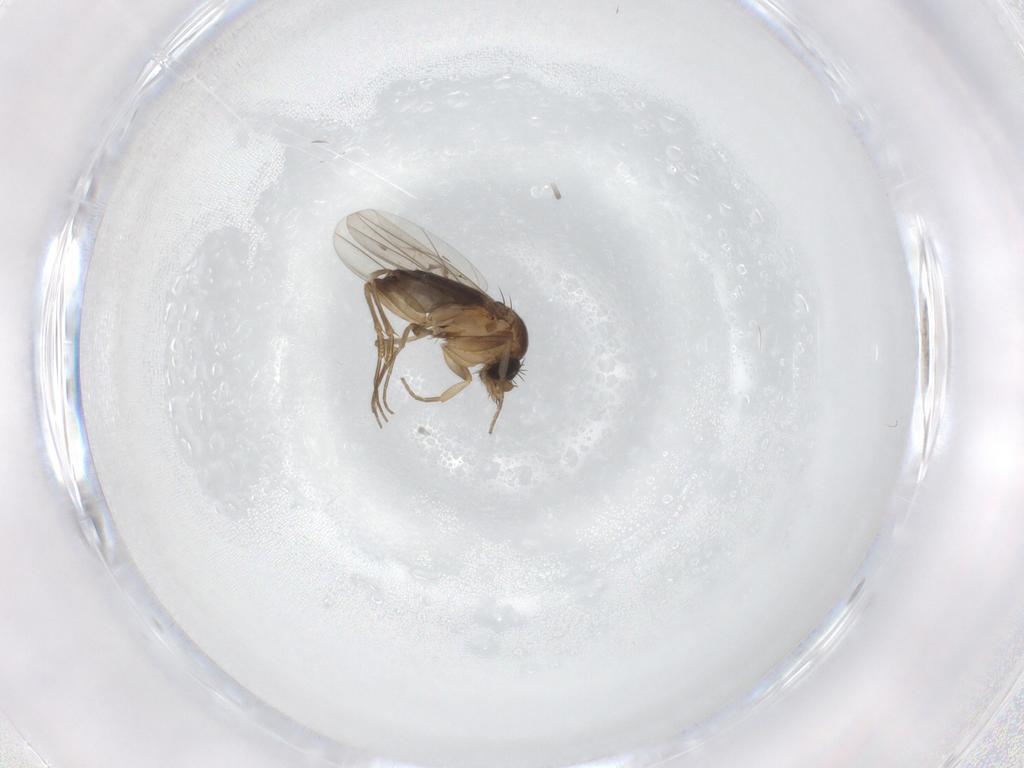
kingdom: Animalia
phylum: Arthropoda
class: Insecta
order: Diptera
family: Phoridae
